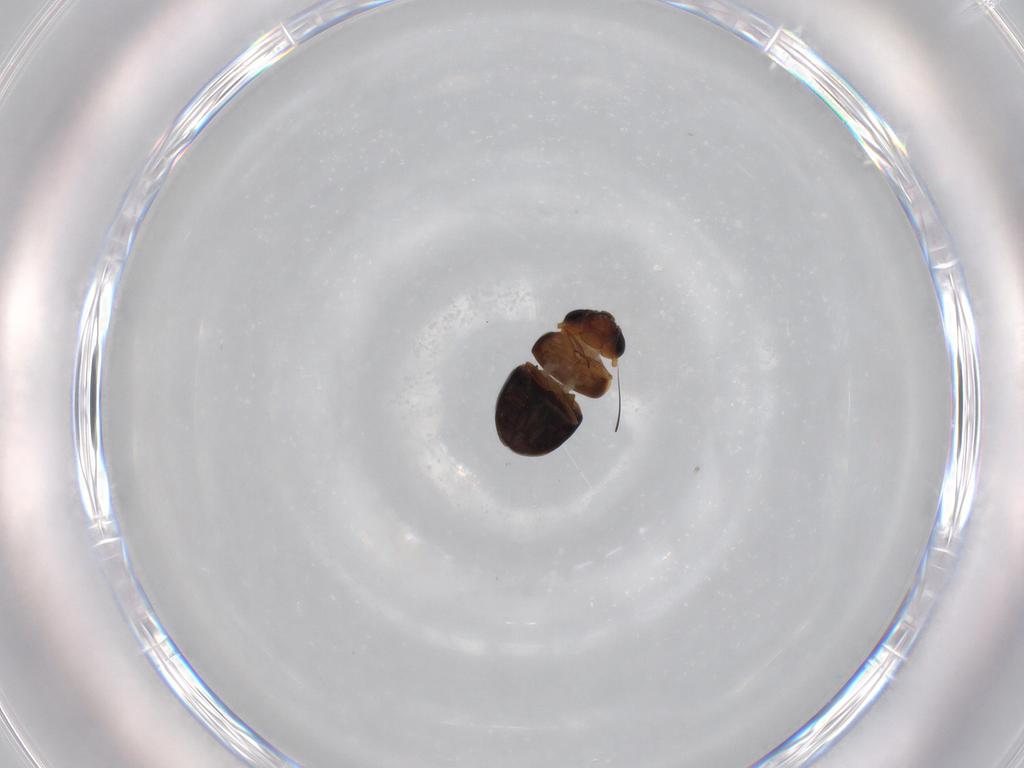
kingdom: Animalia
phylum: Arthropoda
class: Insecta
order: Coleoptera
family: Cybocephalidae
